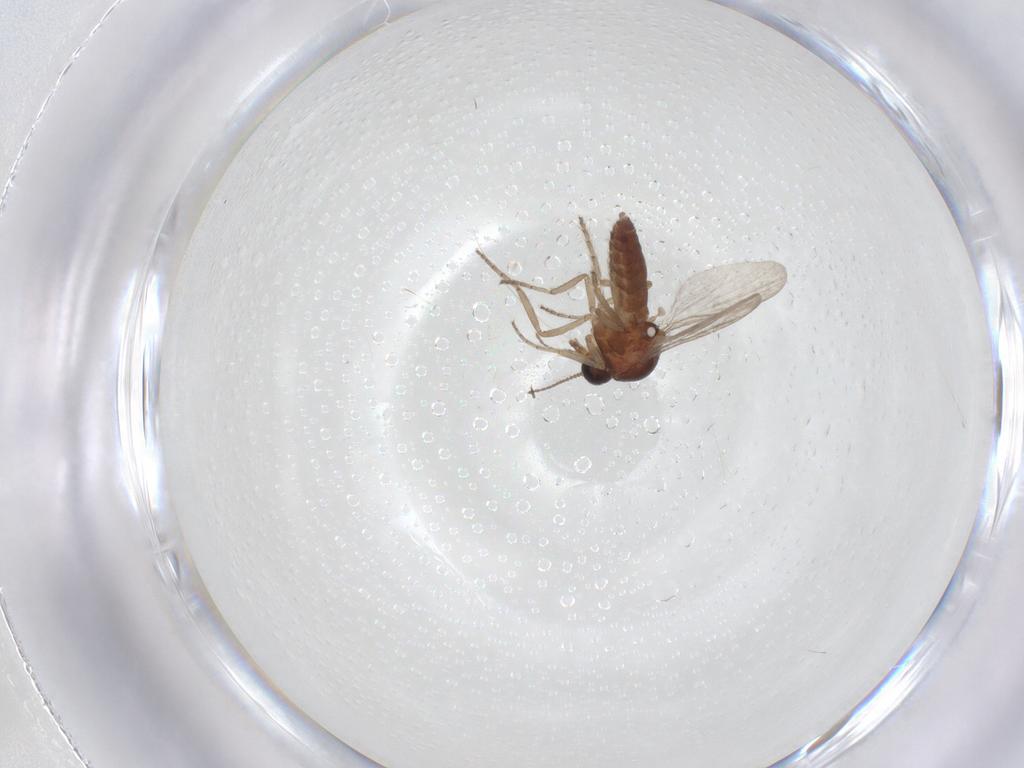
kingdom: Animalia
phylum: Arthropoda
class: Insecta
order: Diptera
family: Ceratopogonidae
